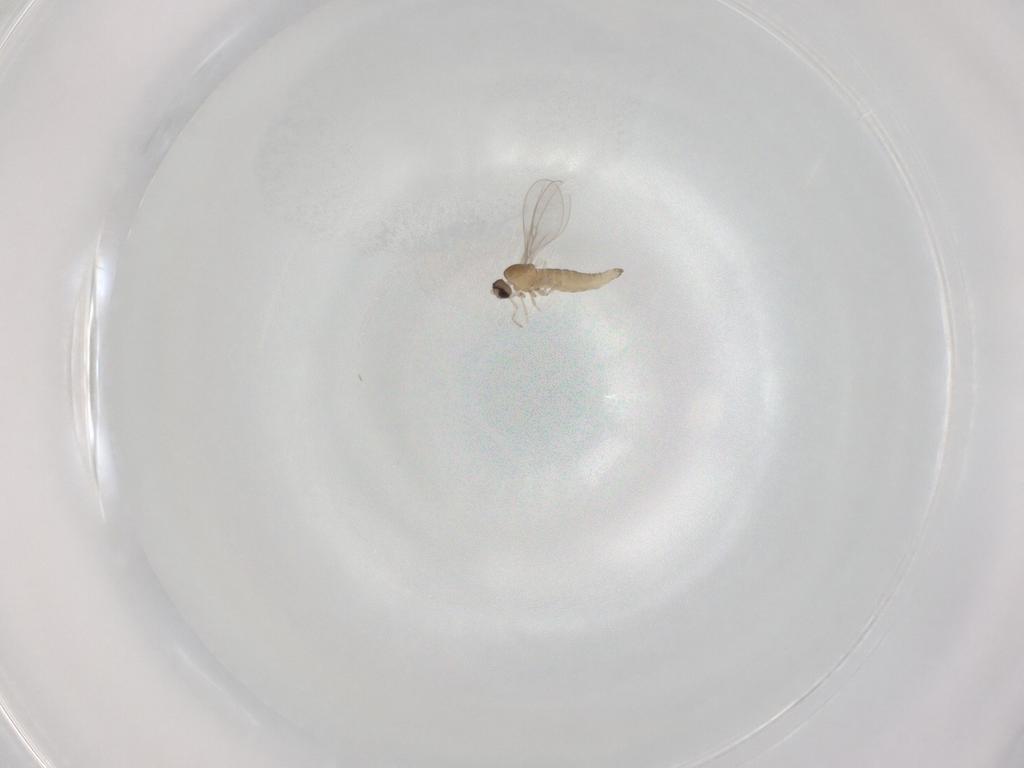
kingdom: Animalia
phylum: Arthropoda
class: Insecta
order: Diptera
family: Cecidomyiidae
